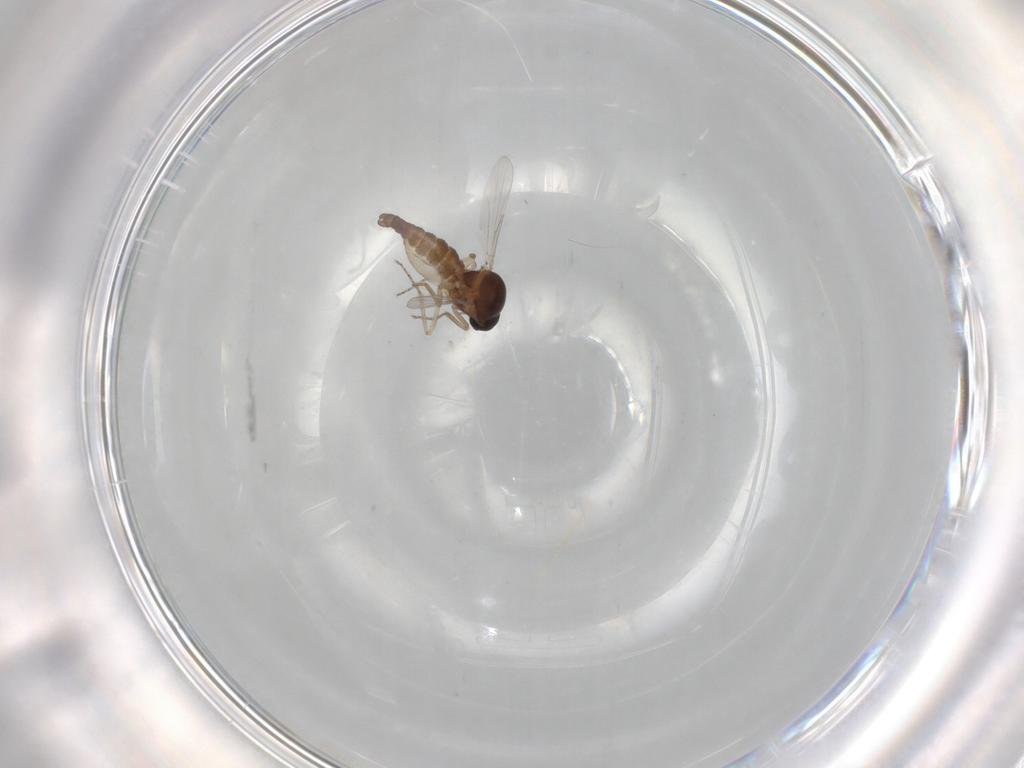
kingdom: Animalia
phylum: Arthropoda
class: Insecta
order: Diptera
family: Ceratopogonidae
